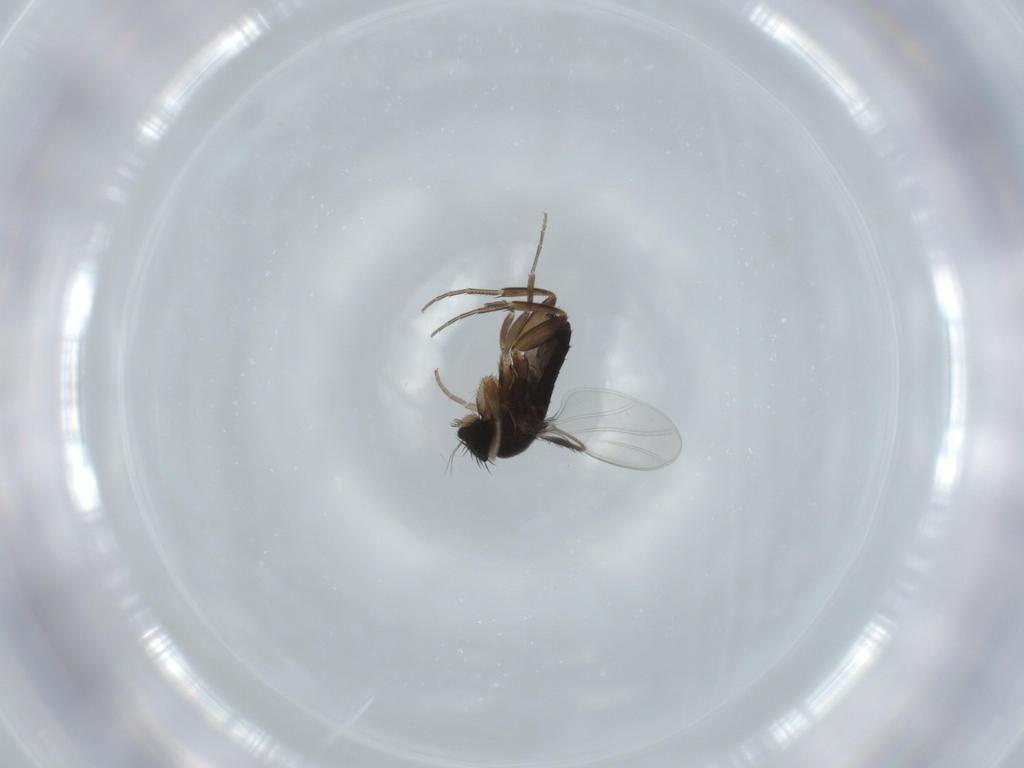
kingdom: Animalia
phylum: Arthropoda
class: Insecta
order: Diptera
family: Phoridae
